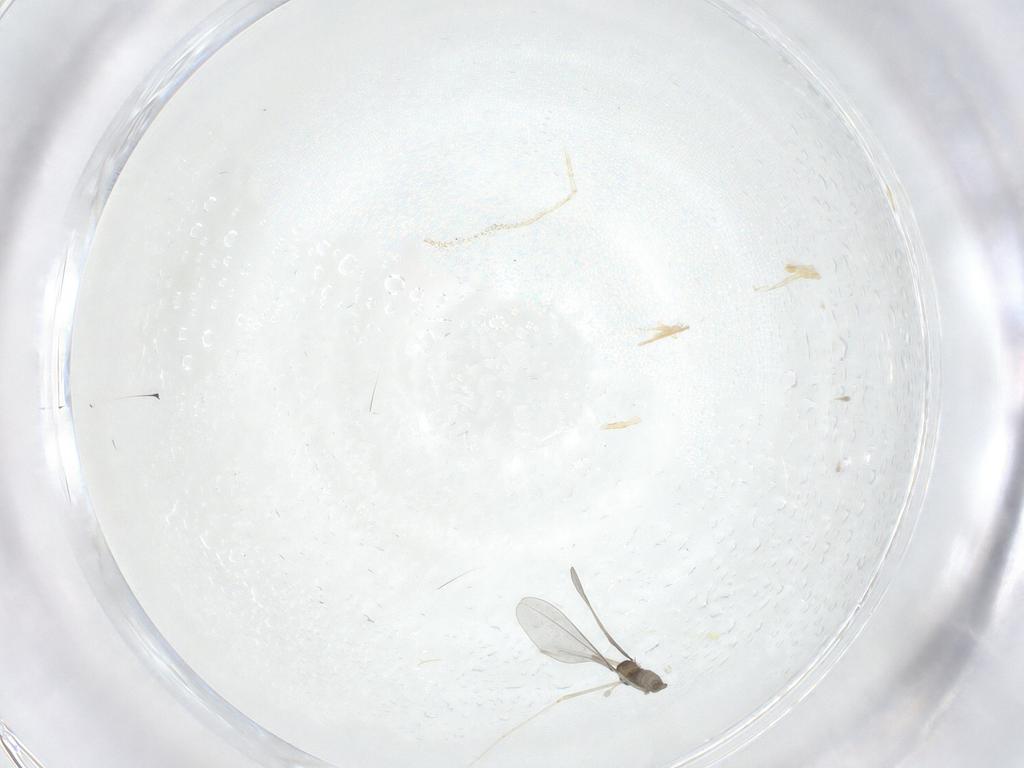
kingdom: Animalia
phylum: Arthropoda
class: Insecta
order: Diptera
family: Cecidomyiidae
